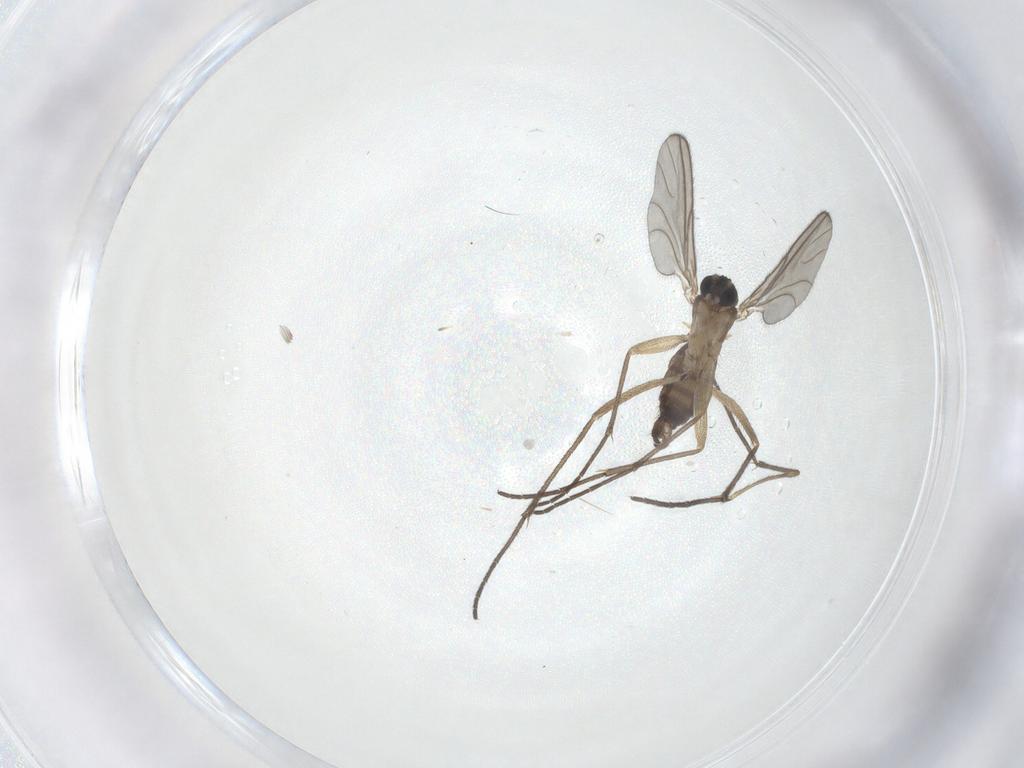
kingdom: Animalia
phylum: Arthropoda
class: Insecta
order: Diptera
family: Sciaridae
